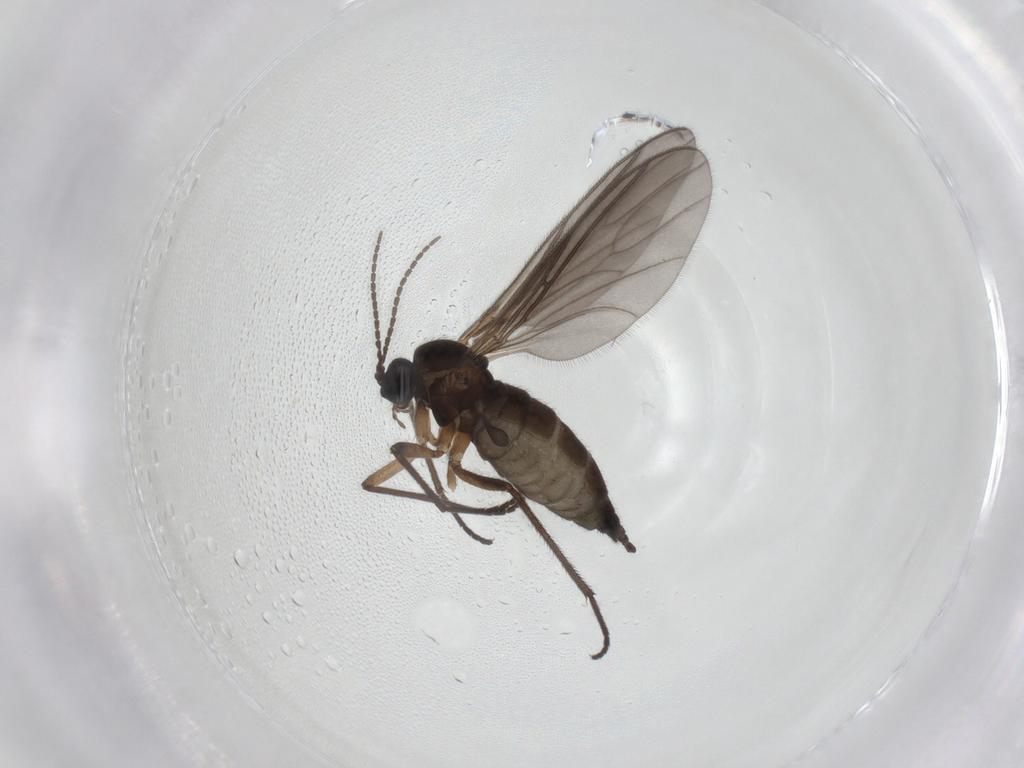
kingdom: Animalia
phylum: Arthropoda
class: Insecta
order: Diptera
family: Sciaridae
